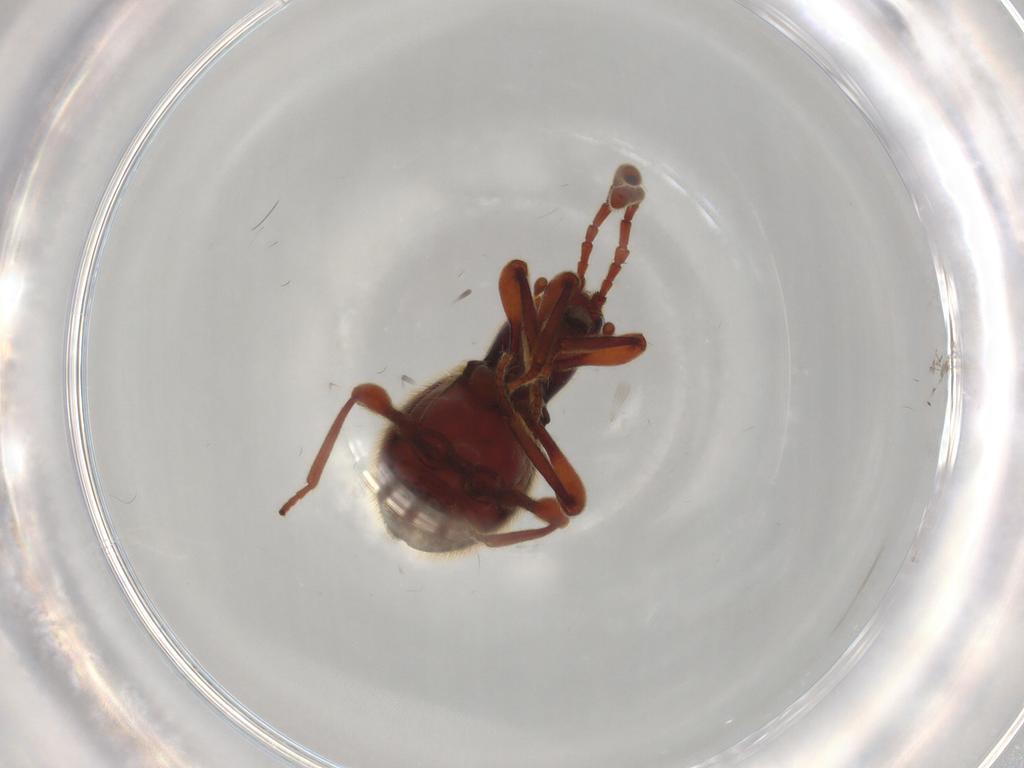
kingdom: Animalia
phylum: Arthropoda
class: Insecta
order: Coleoptera
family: Chrysomelidae
